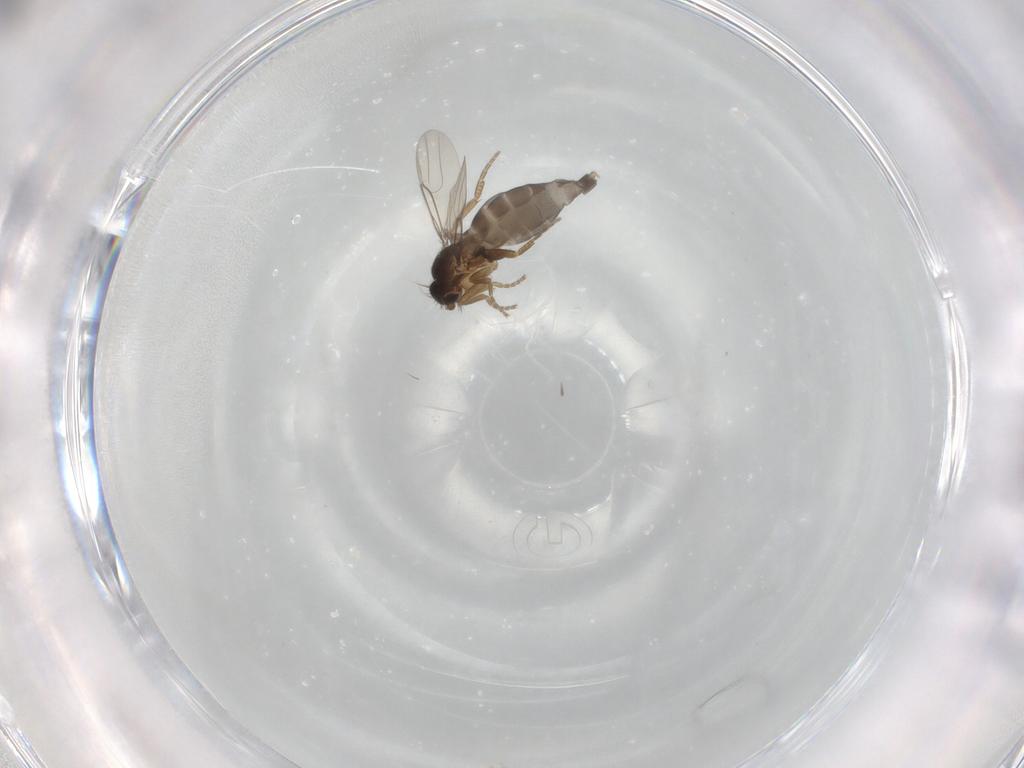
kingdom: Animalia
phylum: Arthropoda
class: Insecta
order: Diptera
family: Phoridae
